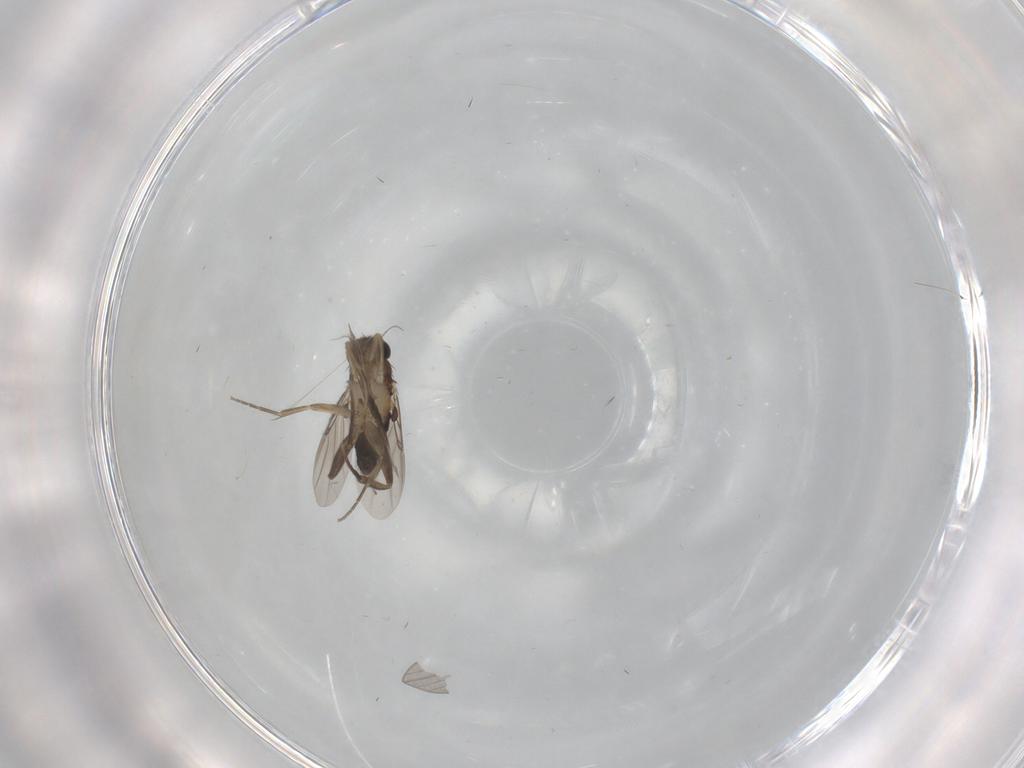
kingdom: Animalia
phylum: Arthropoda
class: Insecta
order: Diptera
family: Phoridae
